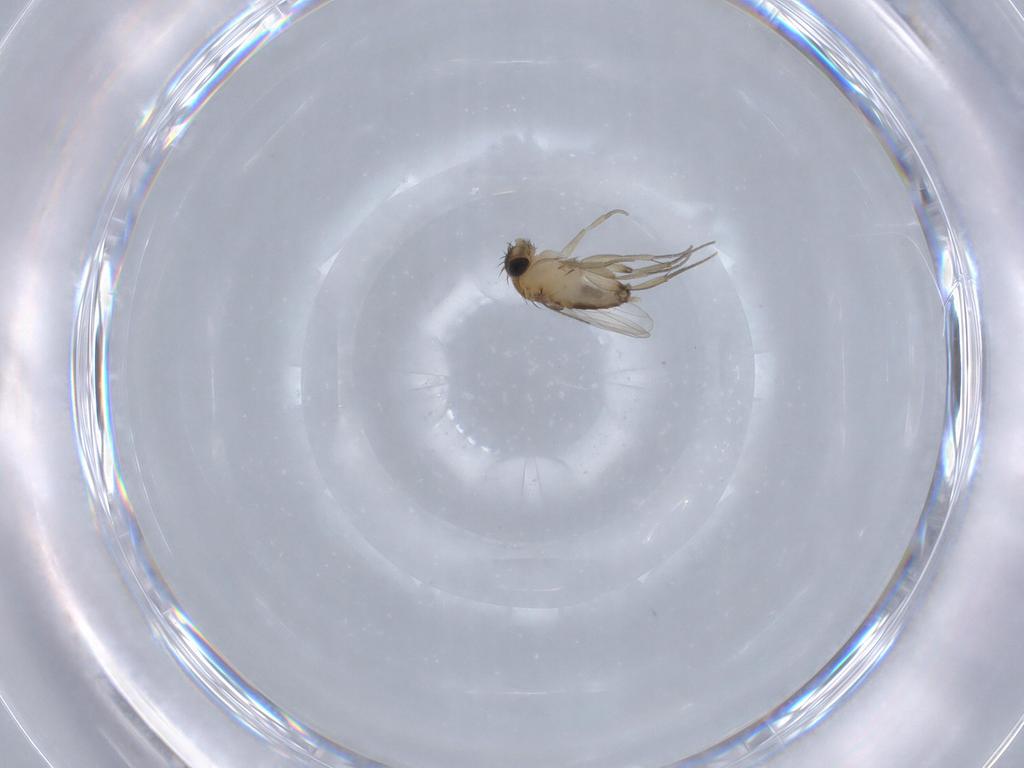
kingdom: Animalia
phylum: Arthropoda
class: Insecta
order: Diptera
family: Phoridae
